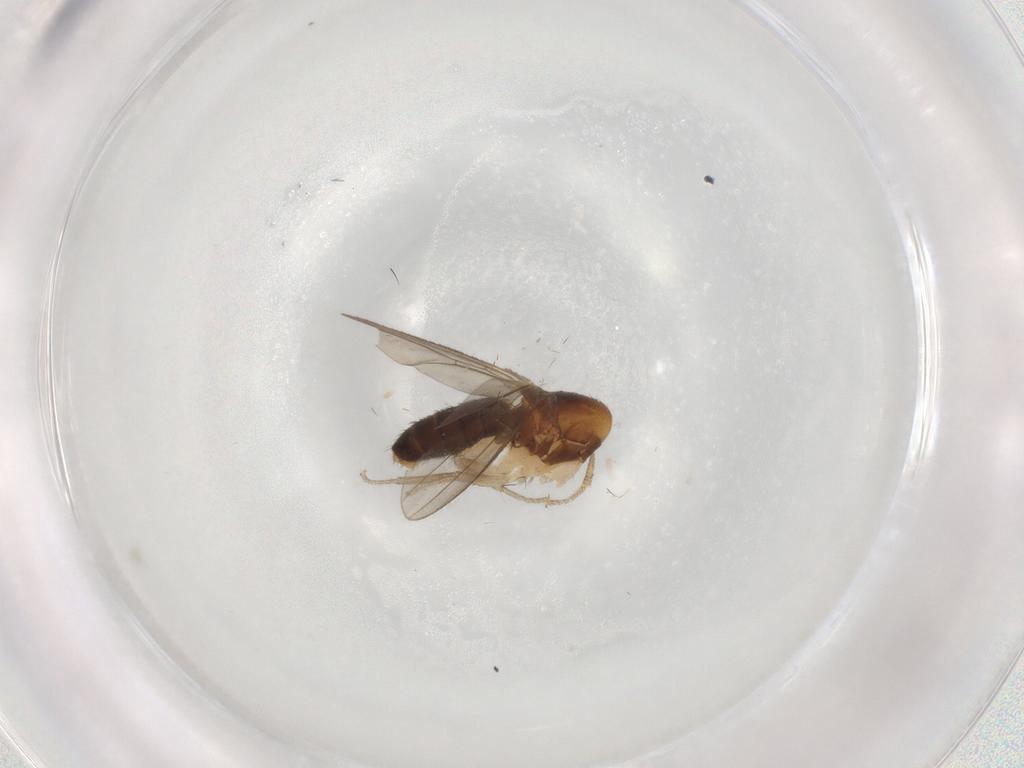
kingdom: Animalia
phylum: Arthropoda
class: Insecta
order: Diptera
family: Drosophilidae
